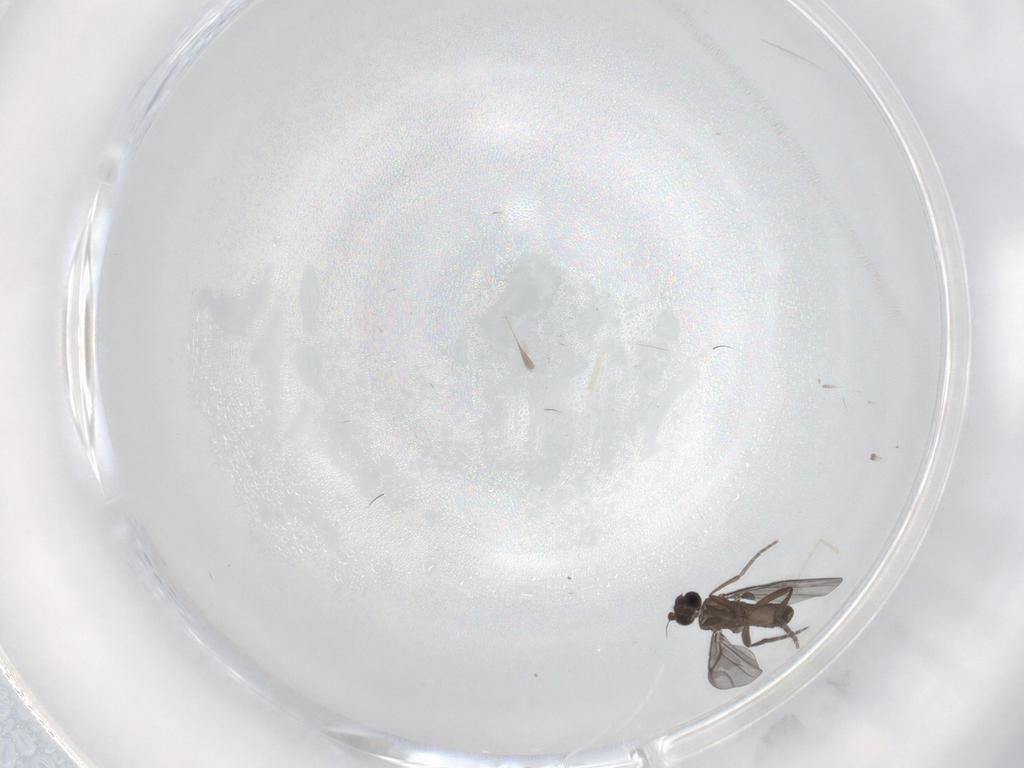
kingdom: Animalia
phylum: Arthropoda
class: Insecta
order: Diptera
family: Phoridae
